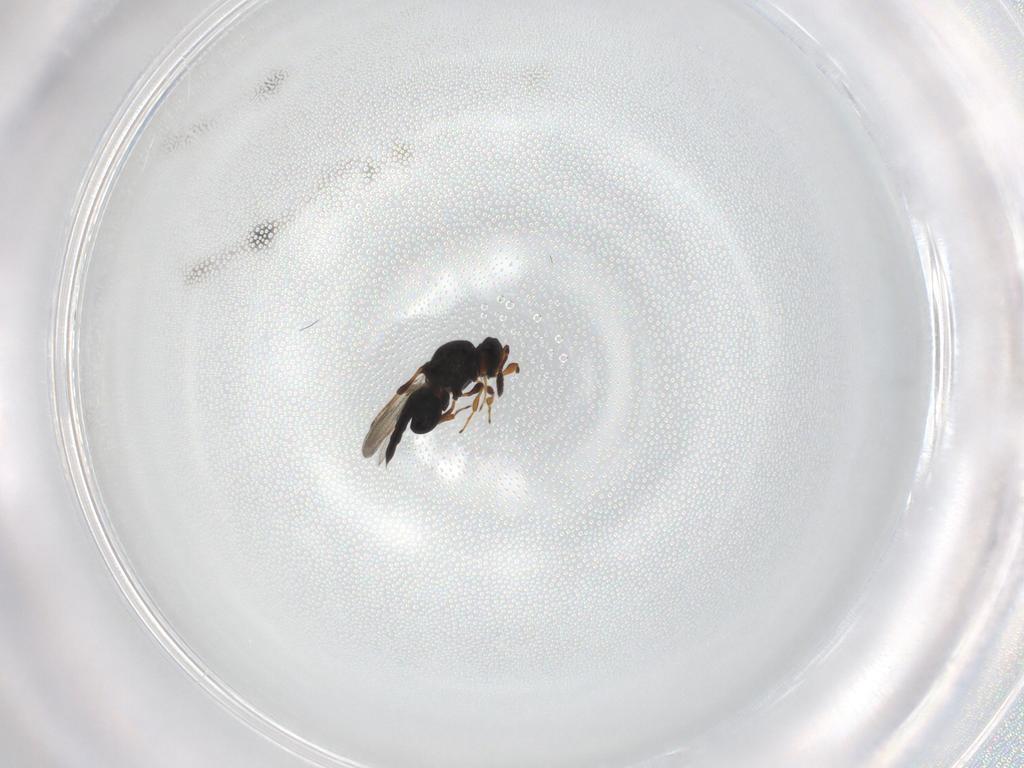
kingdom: Animalia
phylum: Arthropoda
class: Insecta
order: Hymenoptera
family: Platygastridae
